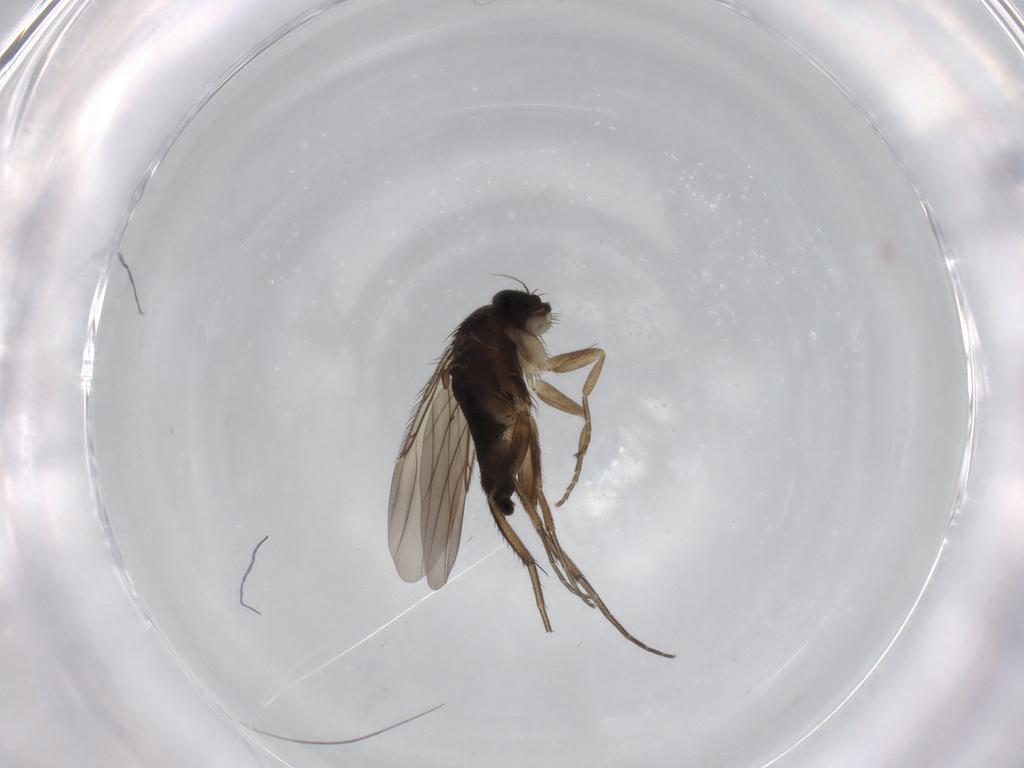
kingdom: Animalia
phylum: Arthropoda
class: Insecta
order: Diptera
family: Phoridae
